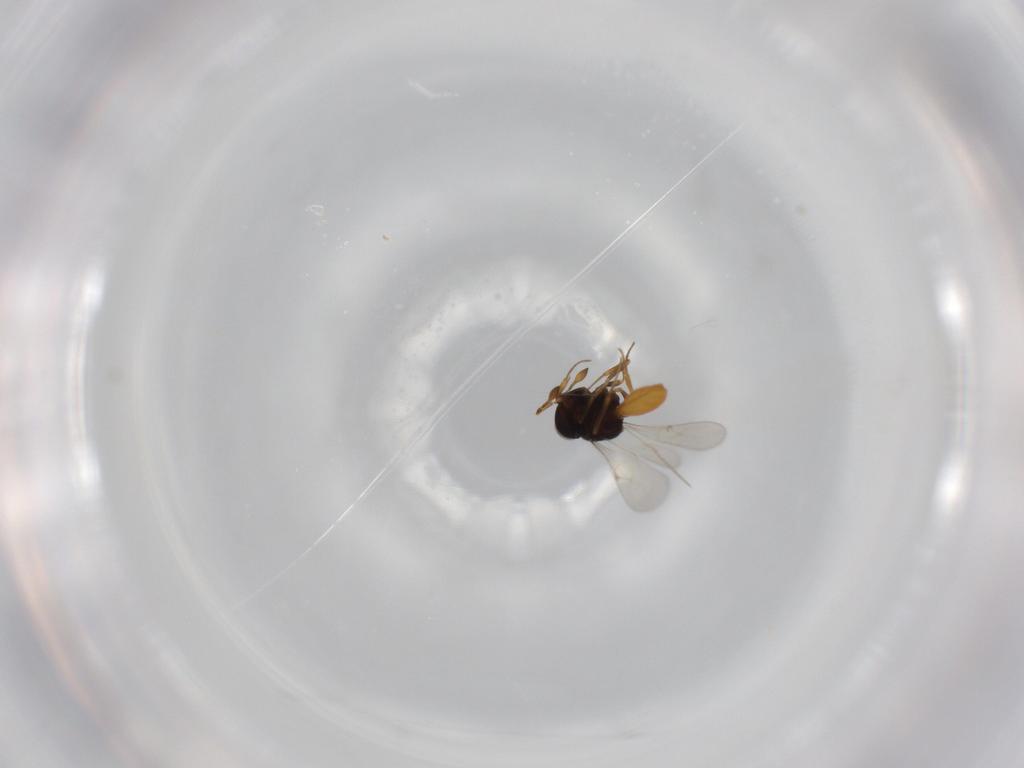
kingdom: Animalia
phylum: Arthropoda
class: Insecta
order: Hymenoptera
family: Scelionidae
